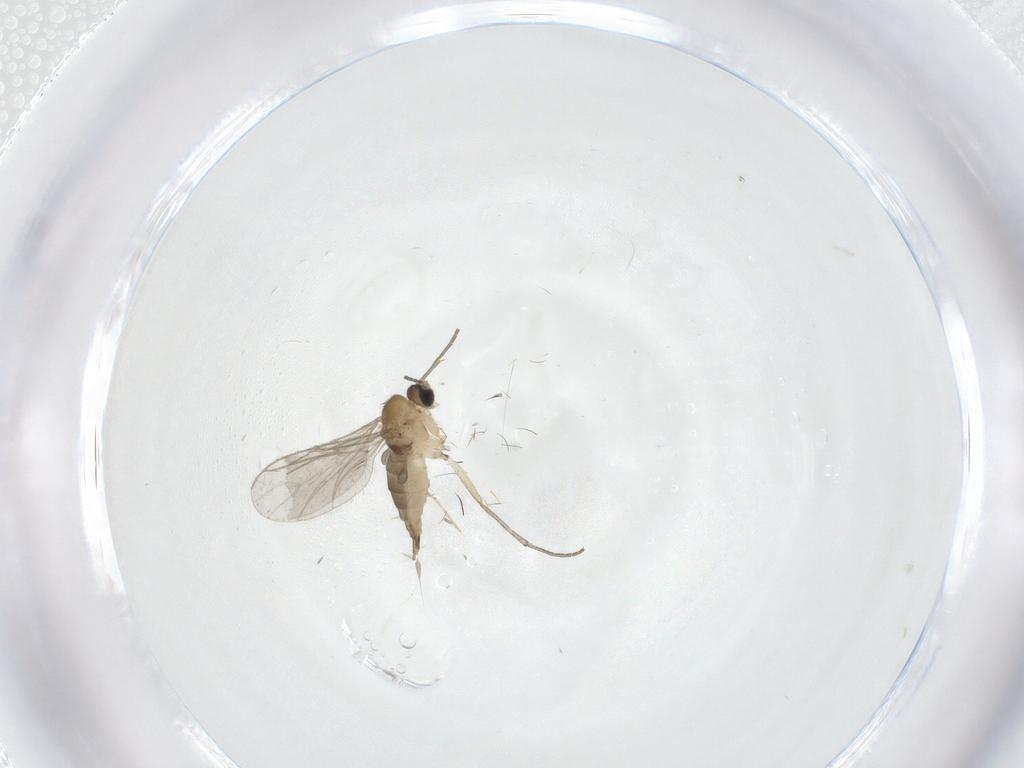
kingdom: Animalia
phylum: Arthropoda
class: Insecta
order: Diptera
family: Sciaridae
